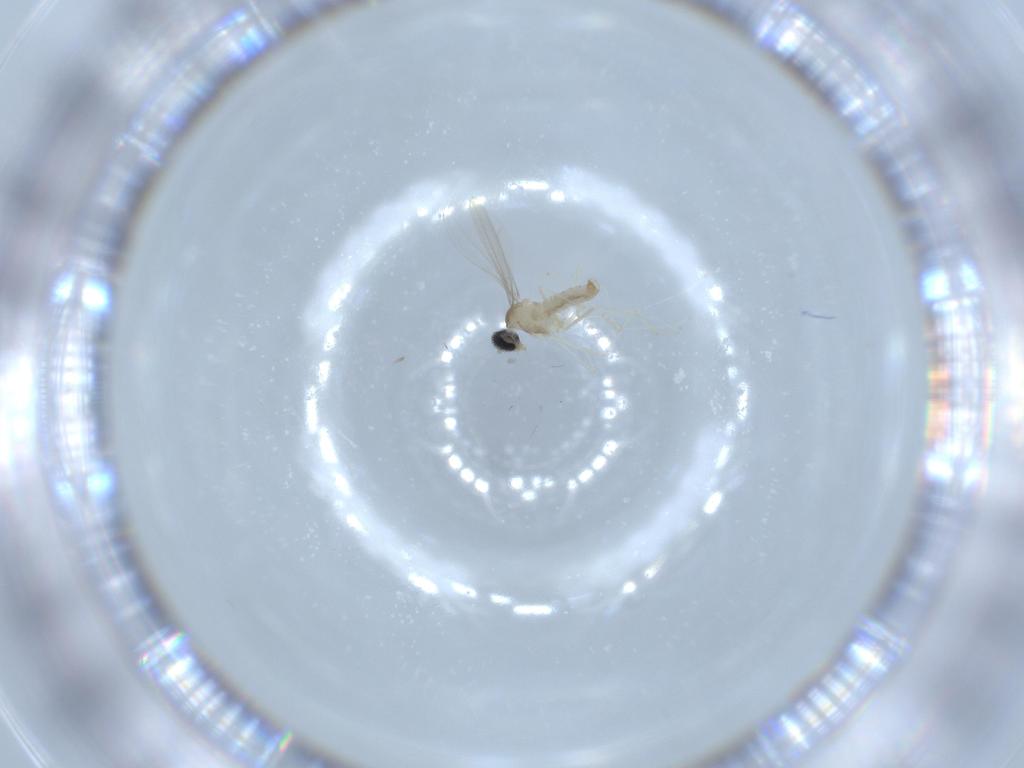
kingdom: Animalia
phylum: Arthropoda
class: Insecta
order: Diptera
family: Cecidomyiidae
